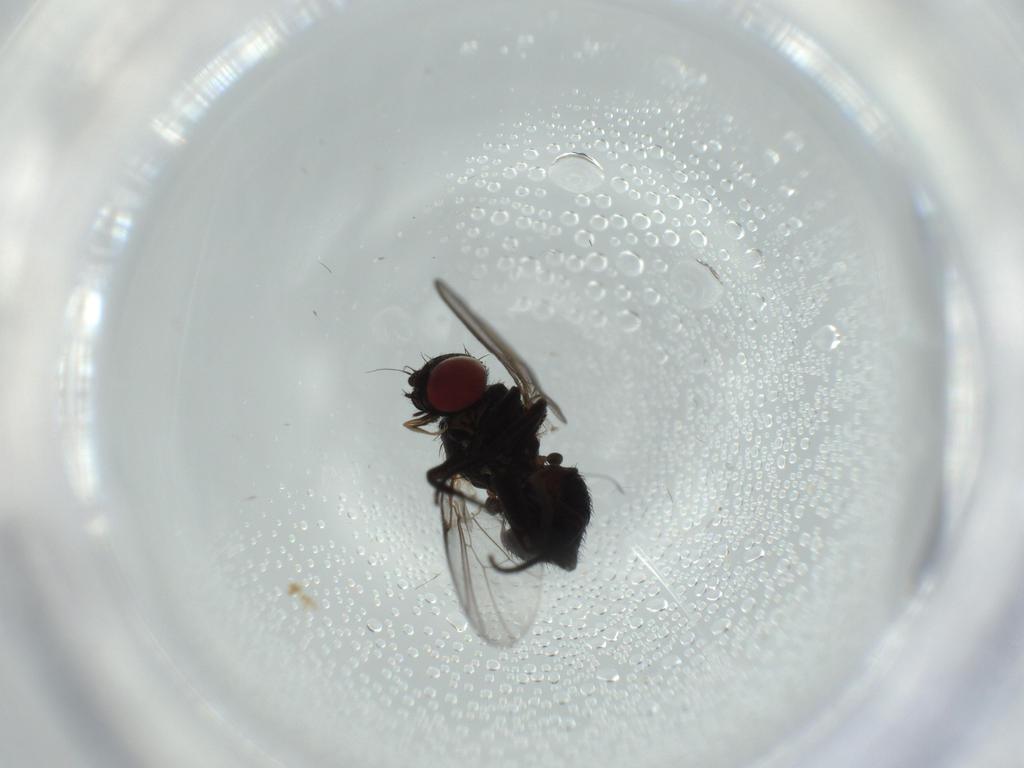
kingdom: Animalia
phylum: Arthropoda
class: Insecta
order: Diptera
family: Agromyzidae
